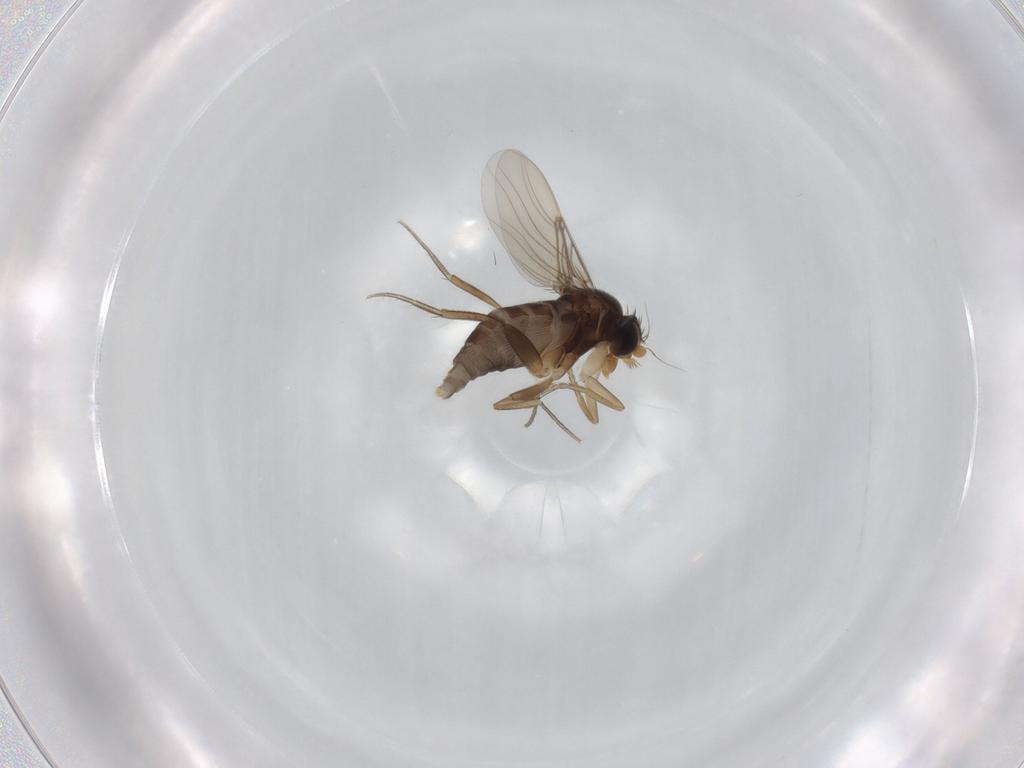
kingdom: Animalia
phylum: Arthropoda
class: Insecta
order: Diptera
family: Phoridae
